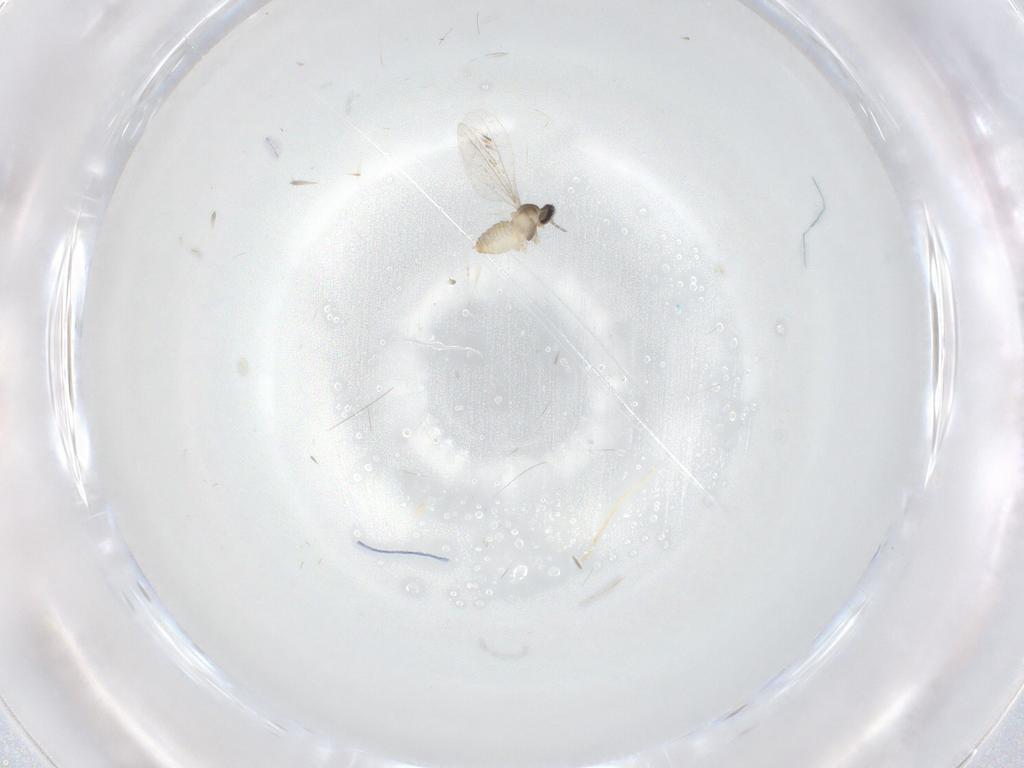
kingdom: Animalia
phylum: Arthropoda
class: Insecta
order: Diptera
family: Cecidomyiidae
